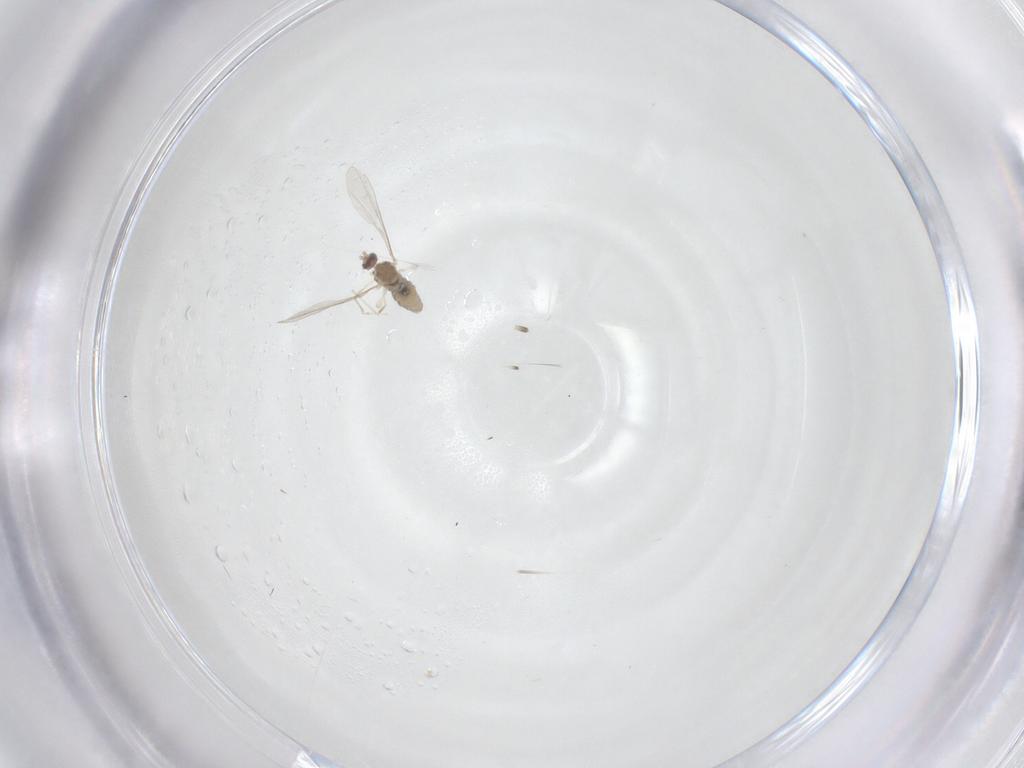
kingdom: Animalia
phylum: Arthropoda
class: Insecta
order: Diptera
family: Cecidomyiidae
